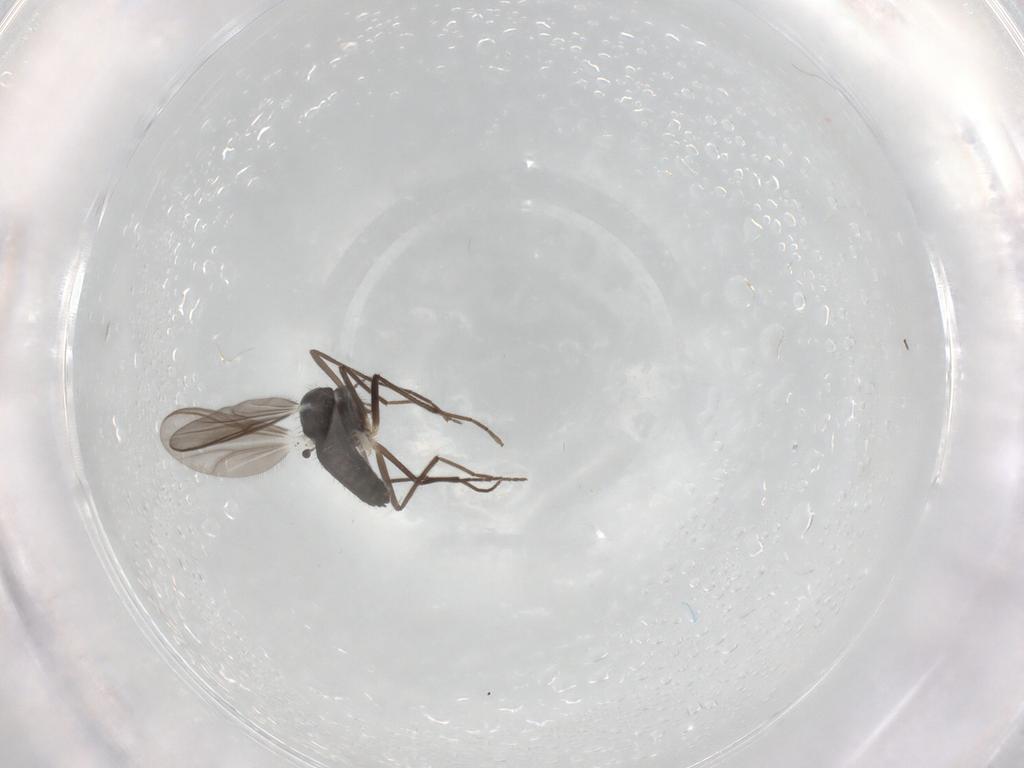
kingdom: Animalia
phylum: Arthropoda
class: Insecta
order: Diptera
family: Chironomidae
